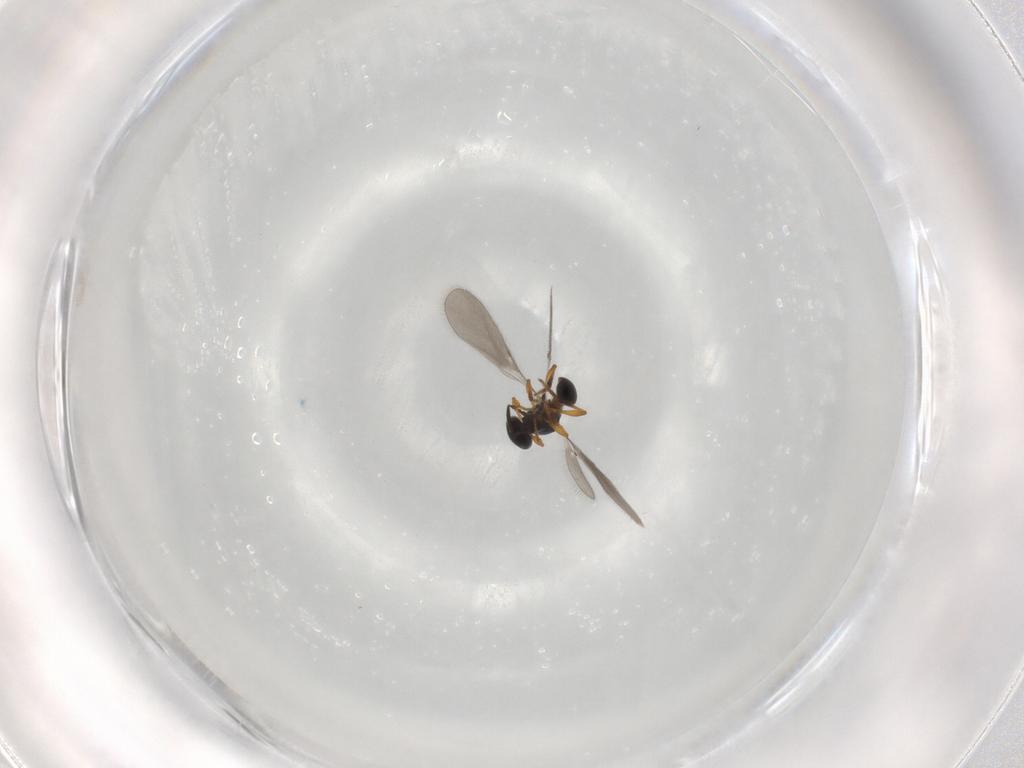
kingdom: Animalia
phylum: Arthropoda
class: Insecta
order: Hymenoptera
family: Platygastridae
